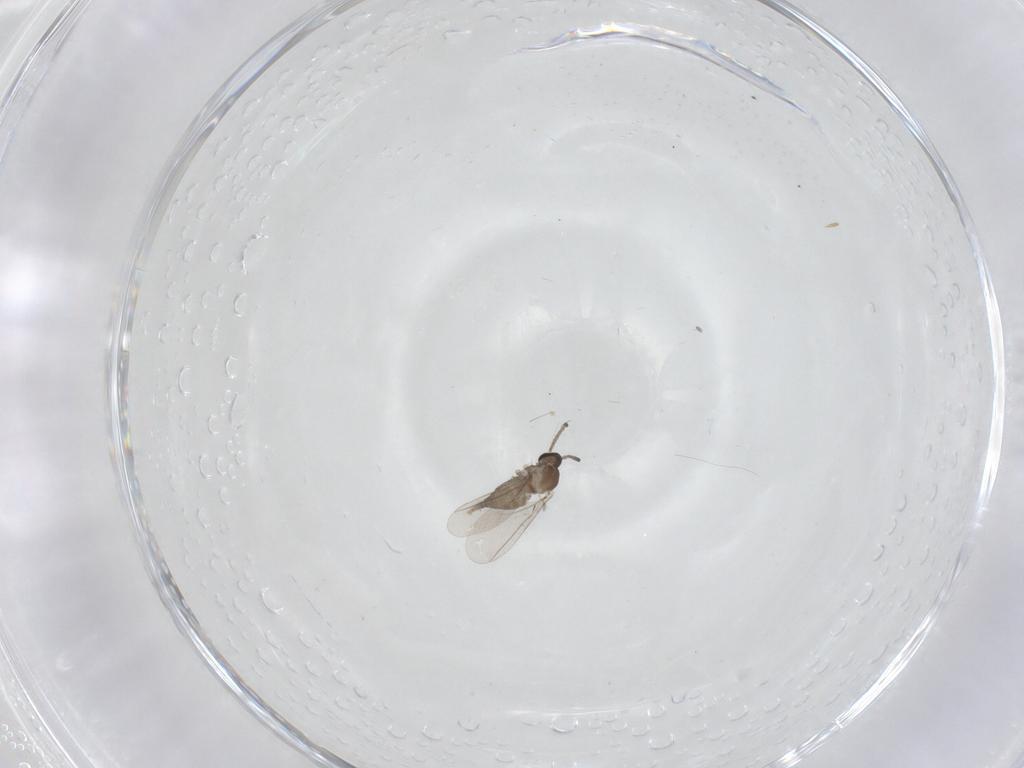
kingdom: Animalia
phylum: Arthropoda
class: Insecta
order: Diptera
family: Cecidomyiidae
